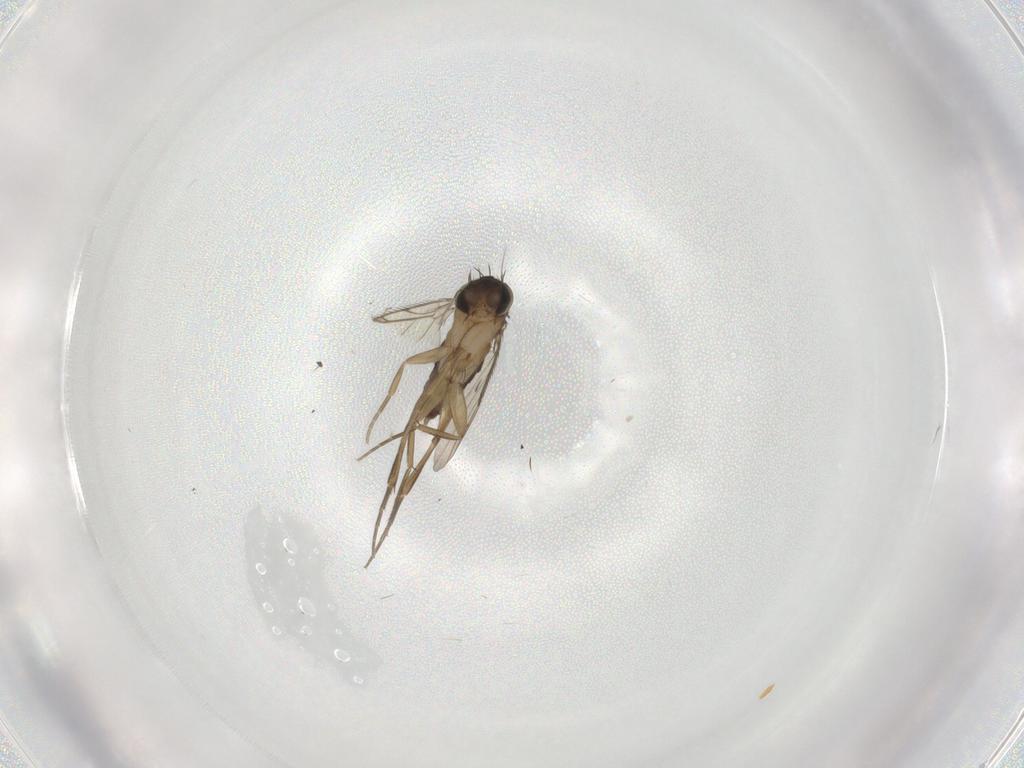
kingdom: Animalia
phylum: Arthropoda
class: Insecta
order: Diptera
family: Phoridae
